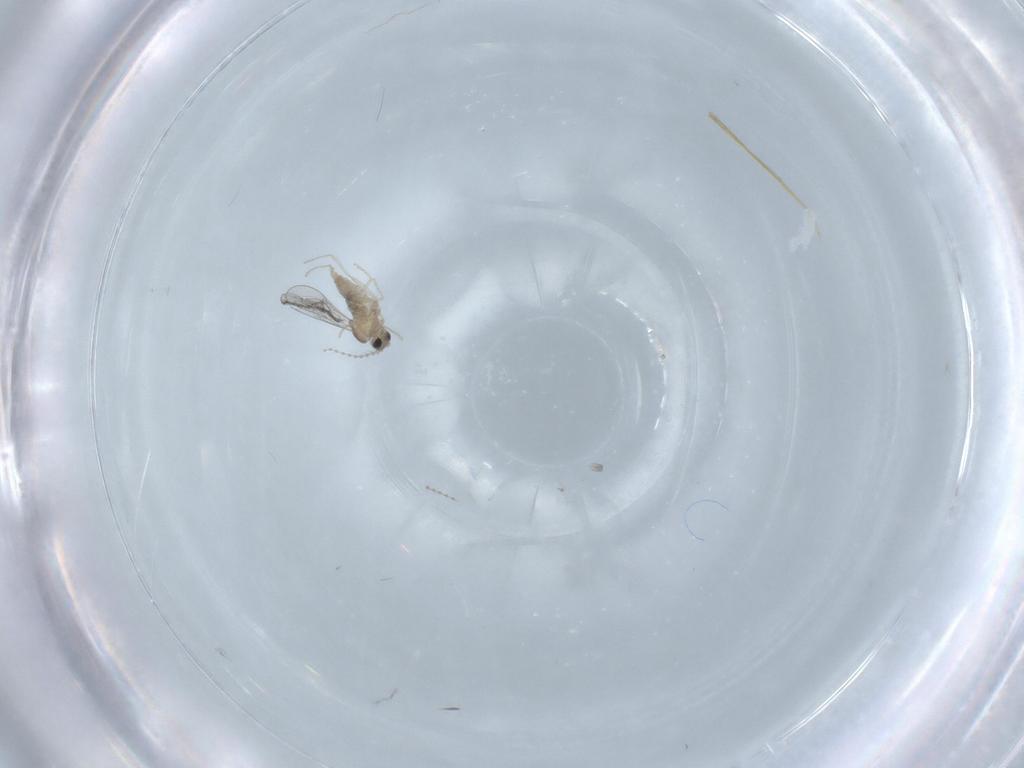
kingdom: Animalia
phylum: Arthropoda
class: Insecta
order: Diptera
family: Cecidomyiidae
